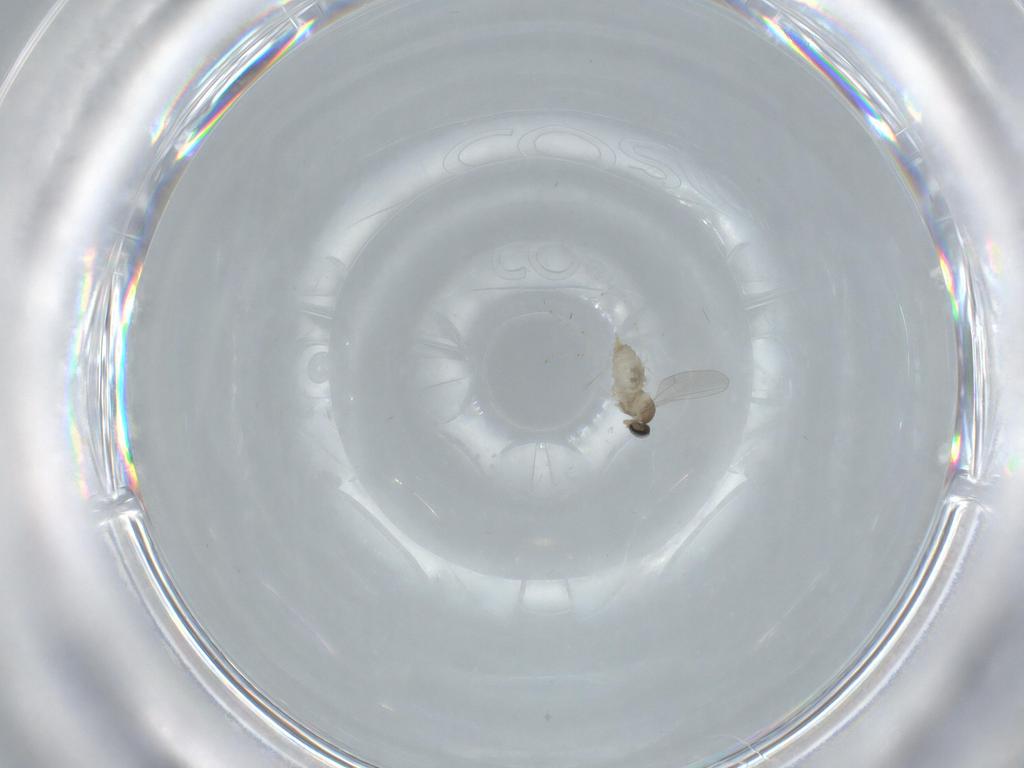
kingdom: Animalia
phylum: Arthropoda
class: Insecta
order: Diptera
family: Cecidomyiidae
